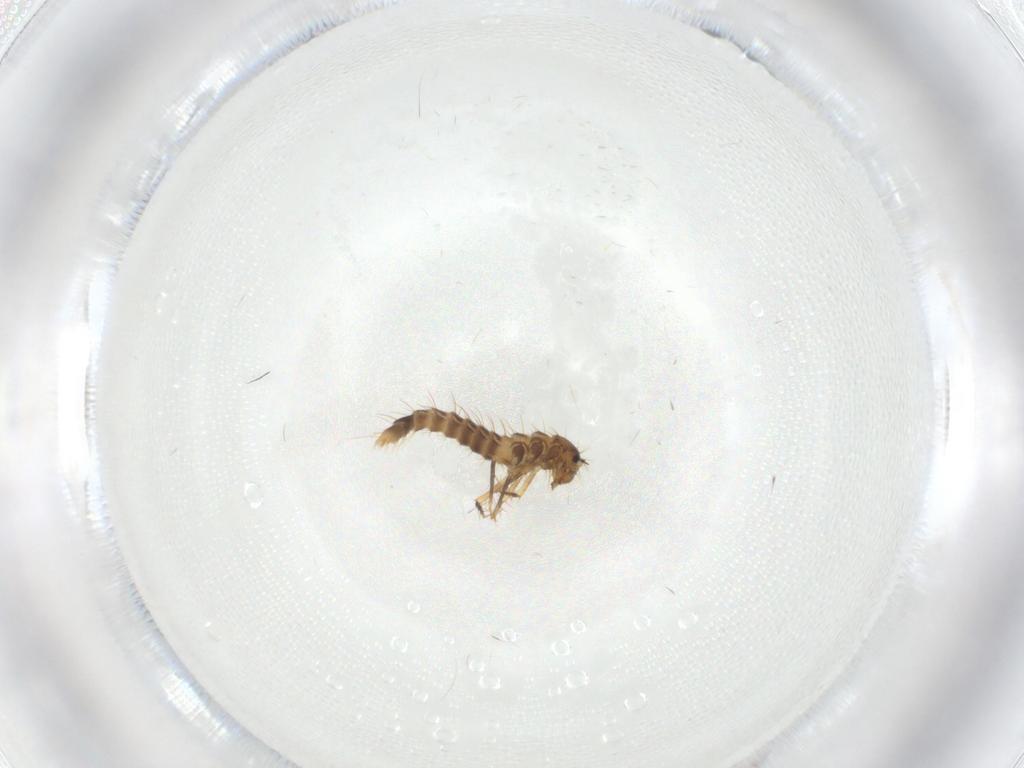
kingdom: Animalia
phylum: Arthropoda
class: Insecta
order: Coleoptera
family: Staphylinidae
